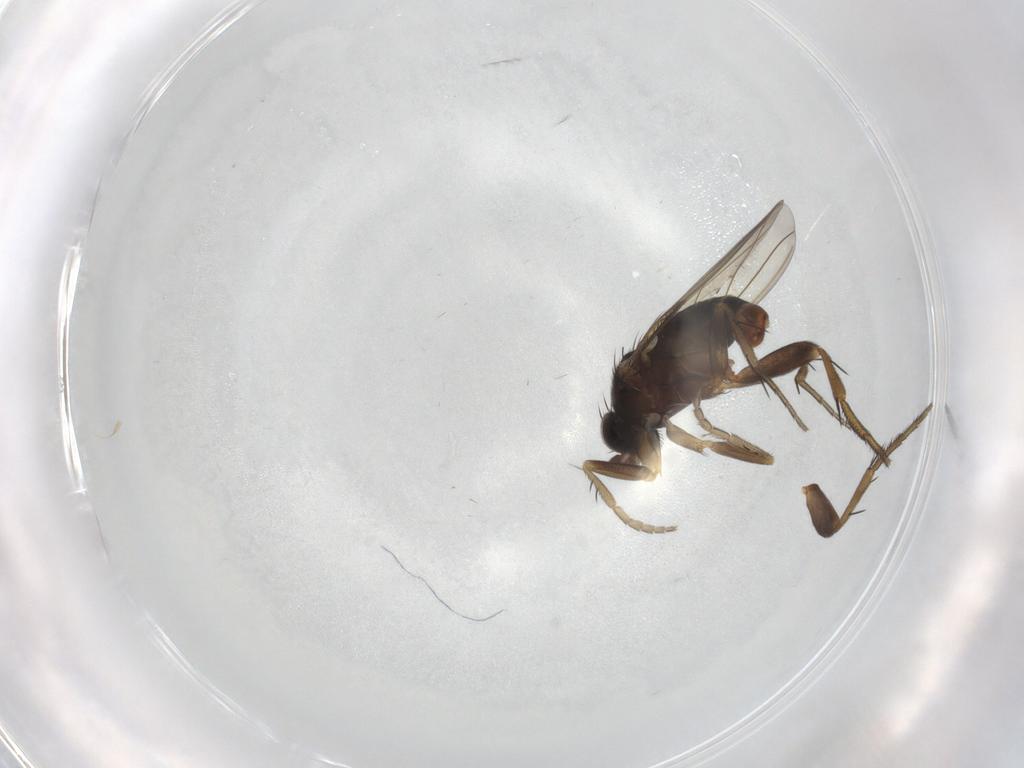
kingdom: Animalia
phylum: Arthropoda
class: Insecta
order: Diptera
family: Phoridae
